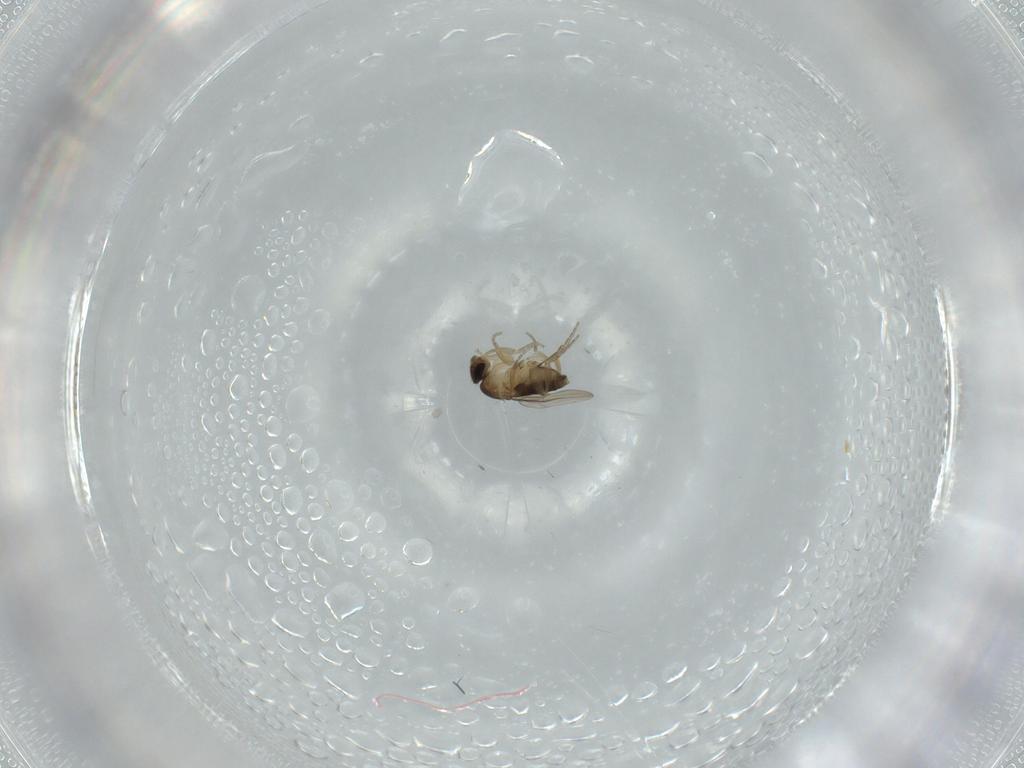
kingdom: Animalia
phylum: Arthropoda
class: Insecta
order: Diptera
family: Phoridae
